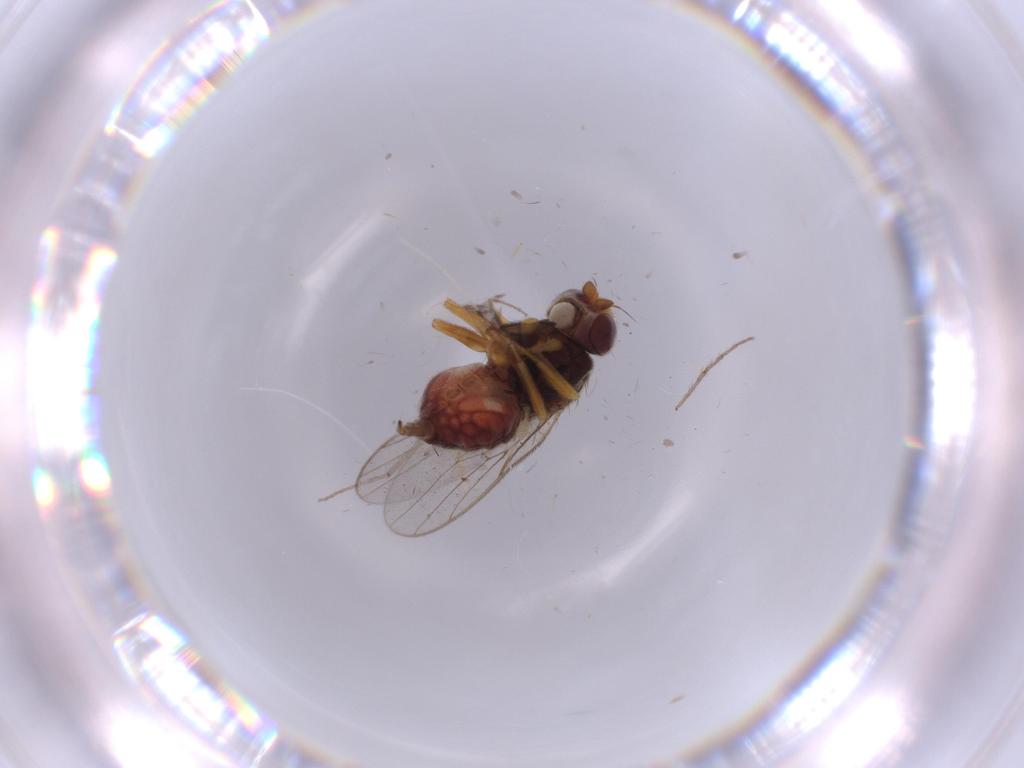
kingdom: Animalia
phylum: Arthropoda
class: Insecta
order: Diptera
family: Chloropidae
